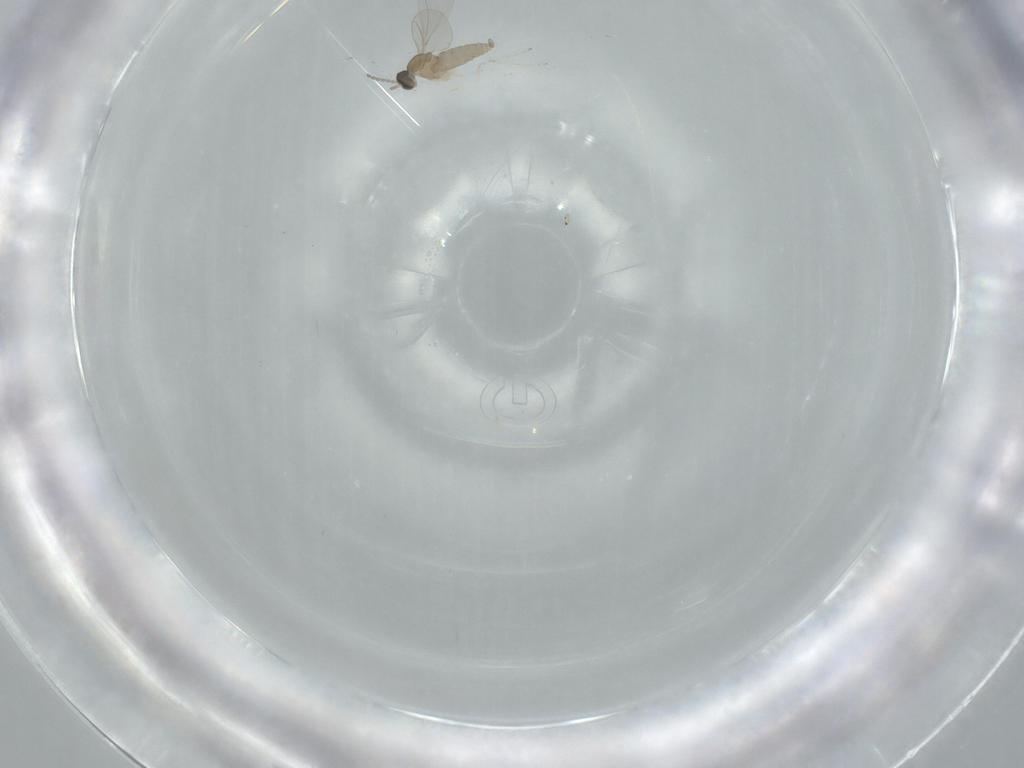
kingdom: Animalia
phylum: Arthropoda
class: Insecta
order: Diptera
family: Cecidomyiidae
